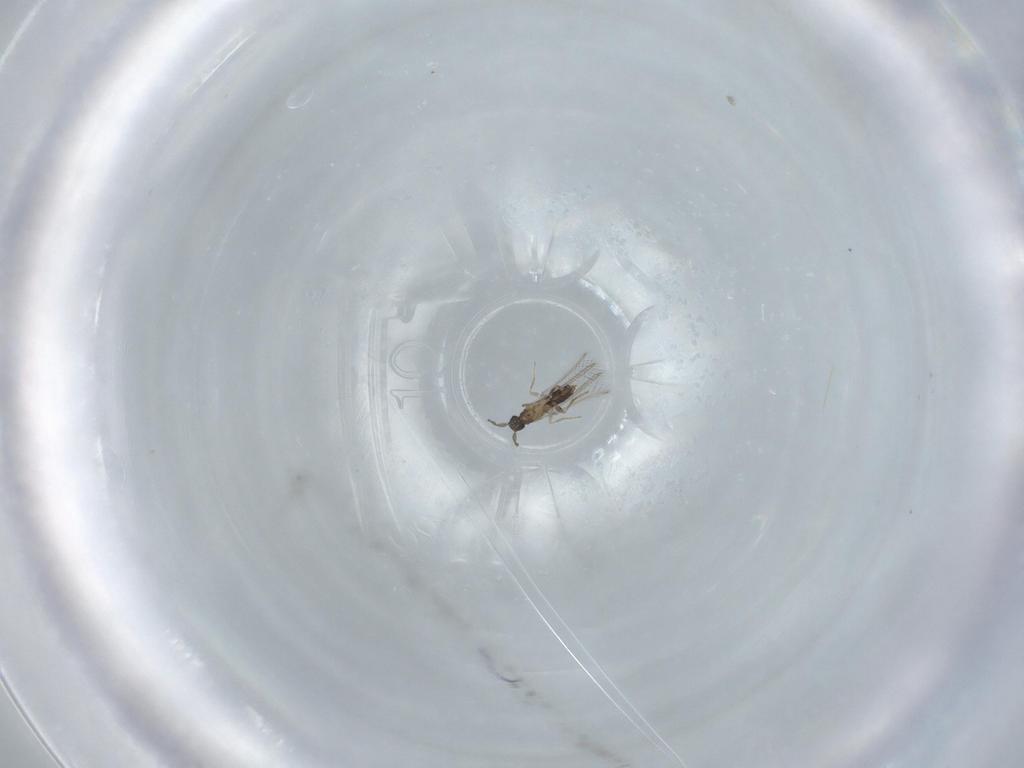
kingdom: Animalia
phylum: Arthropoda
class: Insecta
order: Hymenoptera
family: Mymaridae
